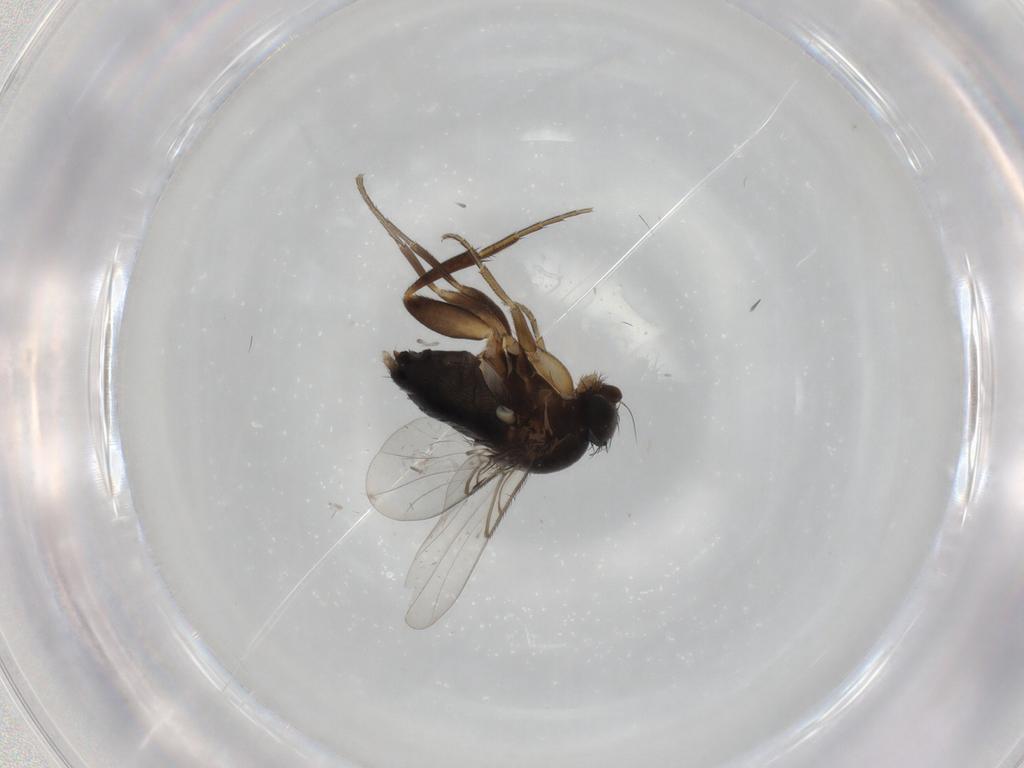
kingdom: Animalia
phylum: Arthropoda
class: Insecta
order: Diptera
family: Phoridae
